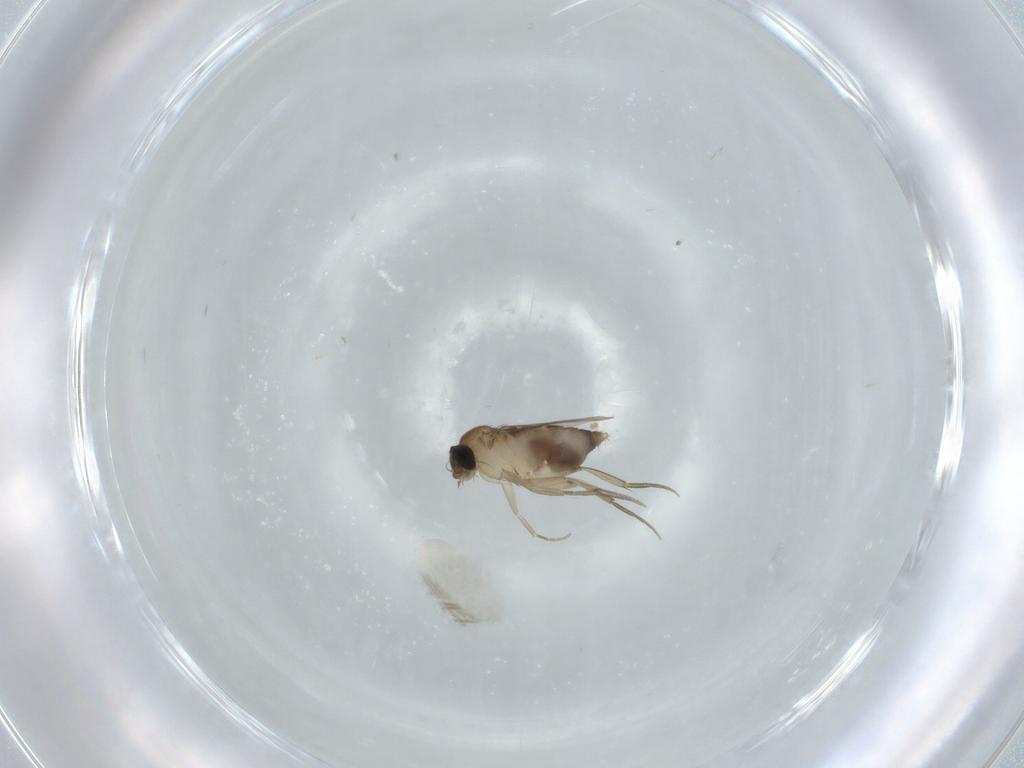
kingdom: Animalia
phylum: Arthropoda
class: Insecta
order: Diptera
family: Phoridae
